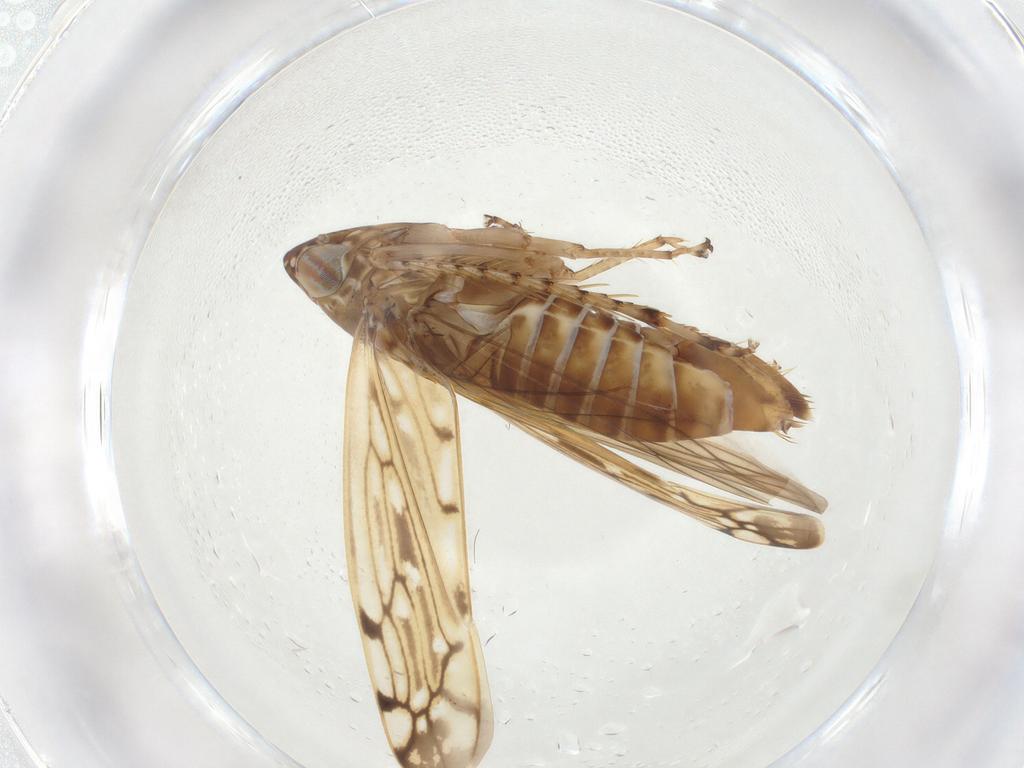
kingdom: Animalia
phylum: Arthropoda
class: Insecta
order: Hemiptera
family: Cicadellidae
